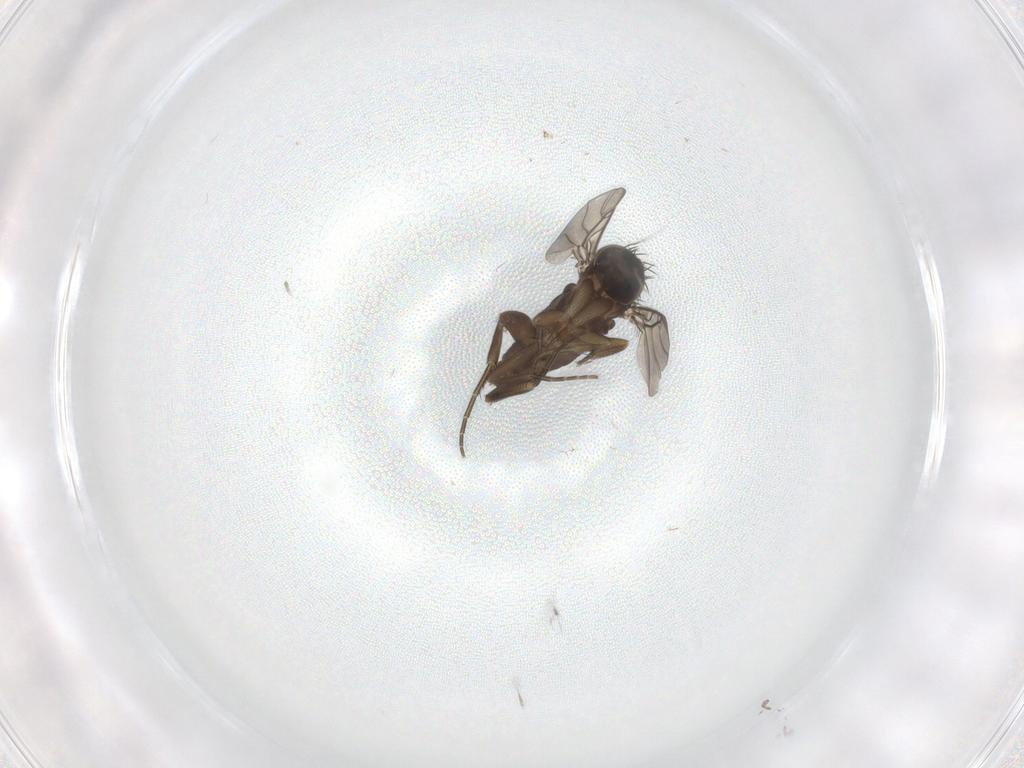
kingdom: Animalia
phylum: Arthropoda
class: Insecta
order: Diptera
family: Phoridae
